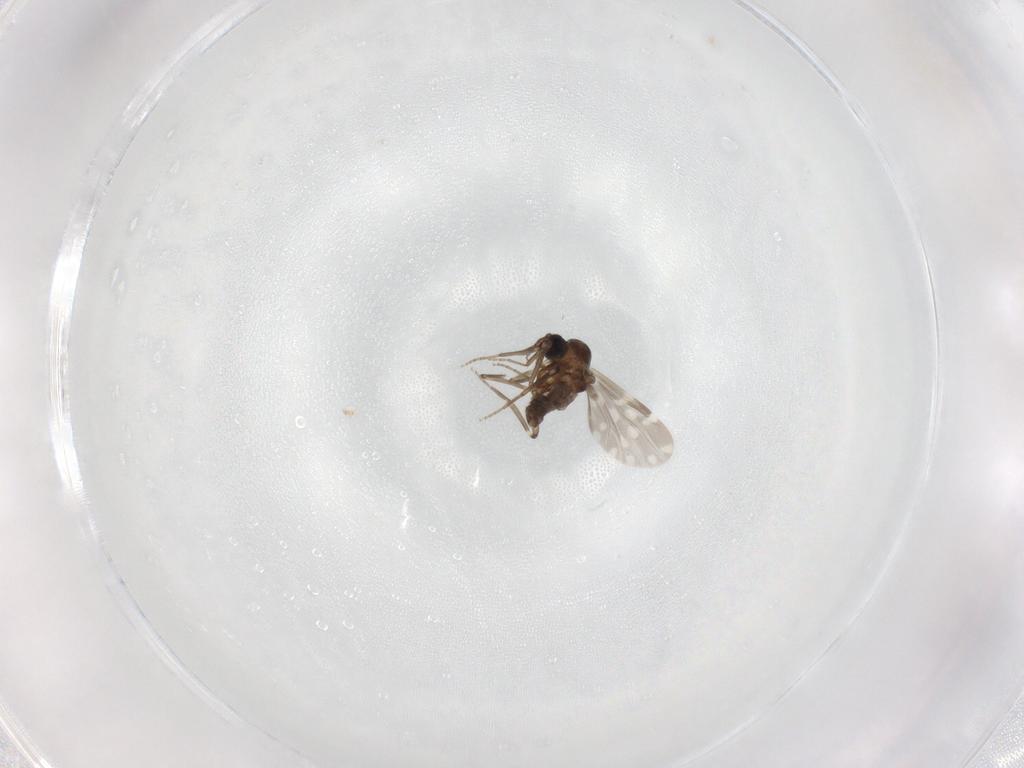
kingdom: Animalia
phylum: Arthropoda
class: Insecta
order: Diptera
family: Ceratopogonidae
